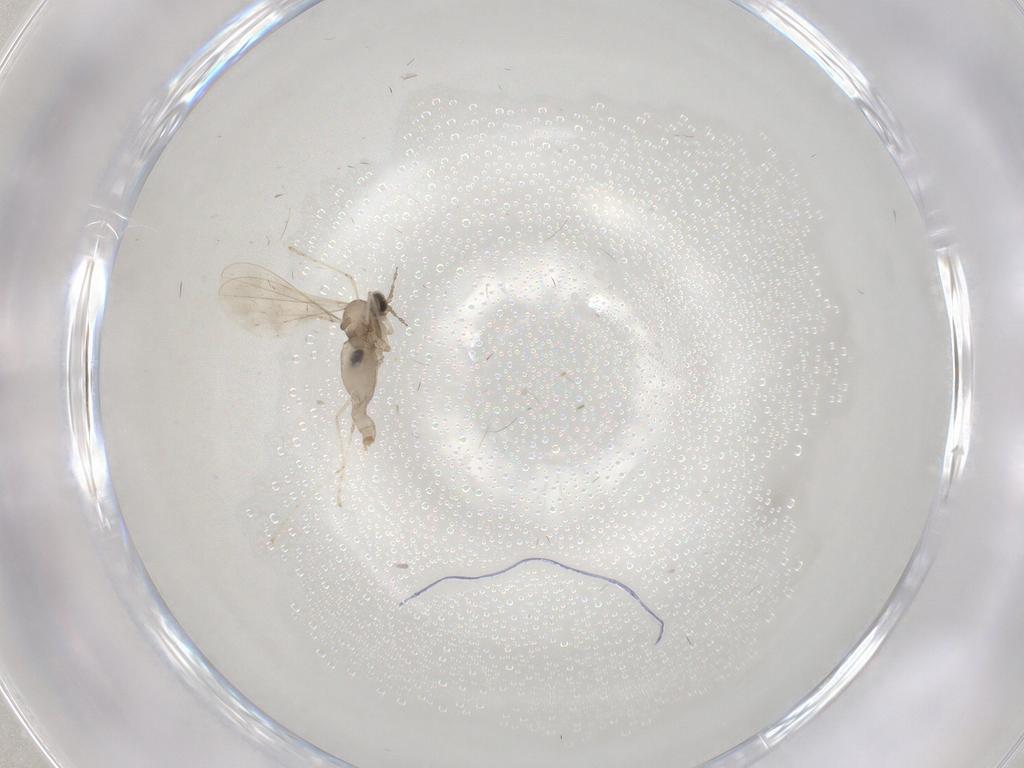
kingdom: Animalia
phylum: Arthropoda
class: Insecta
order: Diptera
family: Cecidomyiidae
